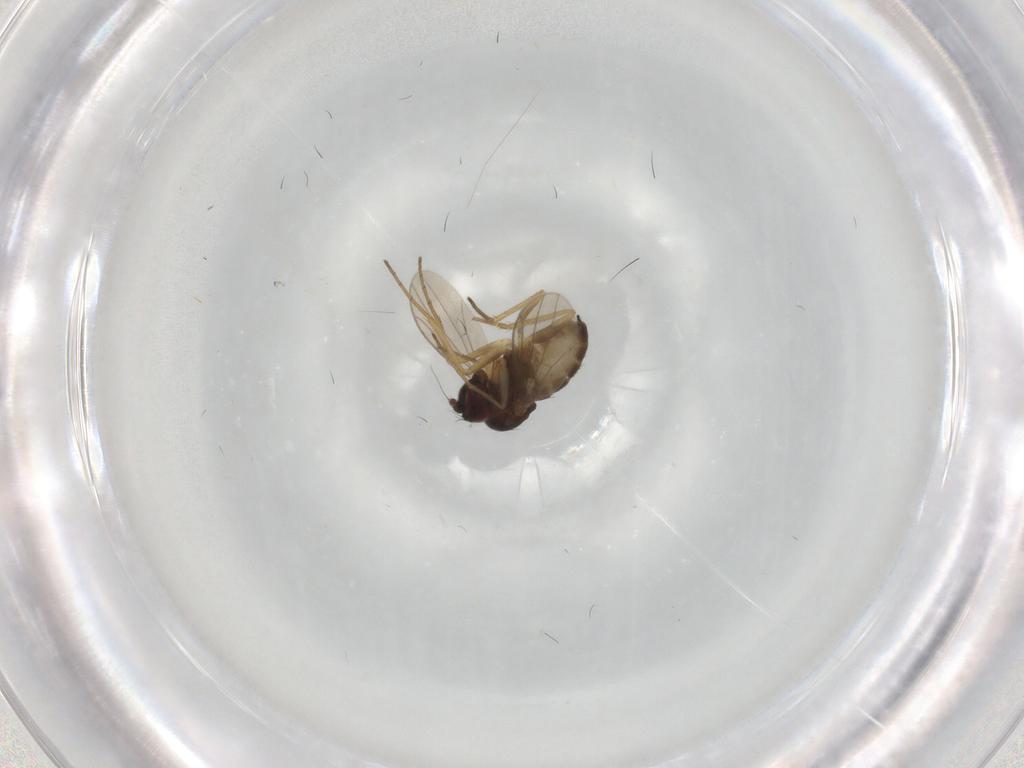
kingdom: Animalia
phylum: Arthropoda
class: Insecta
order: Diptera
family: Dolichopodidae
